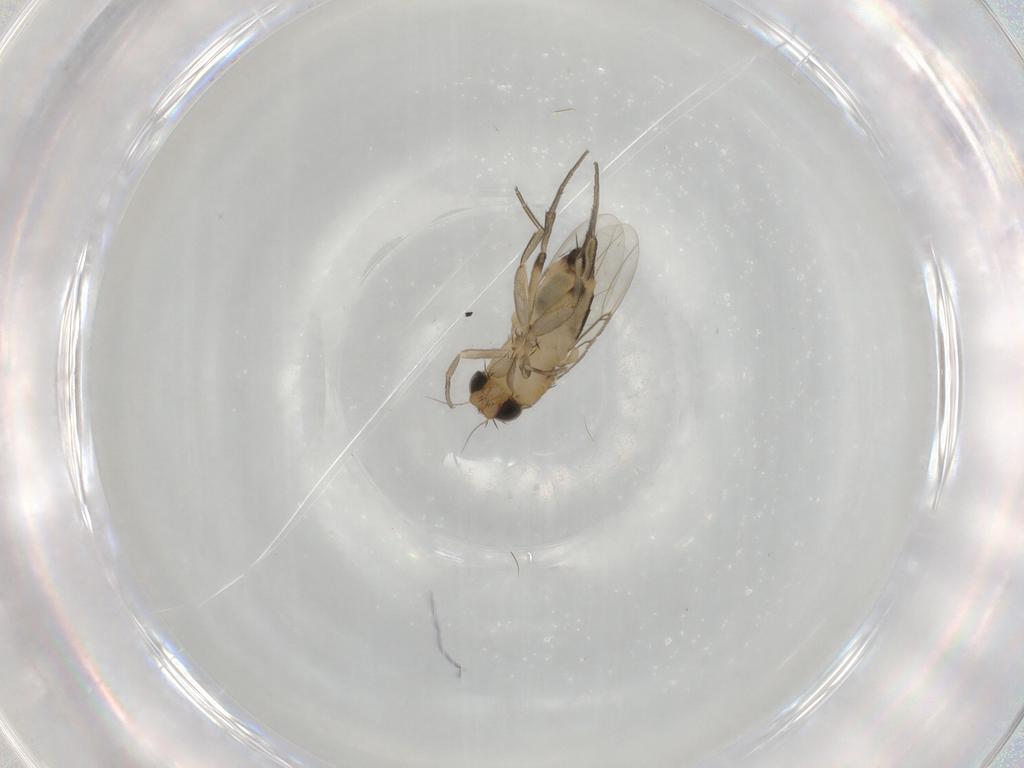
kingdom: Animalia
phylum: Arthropoda
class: Insecta
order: Diptera
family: Phoridae
